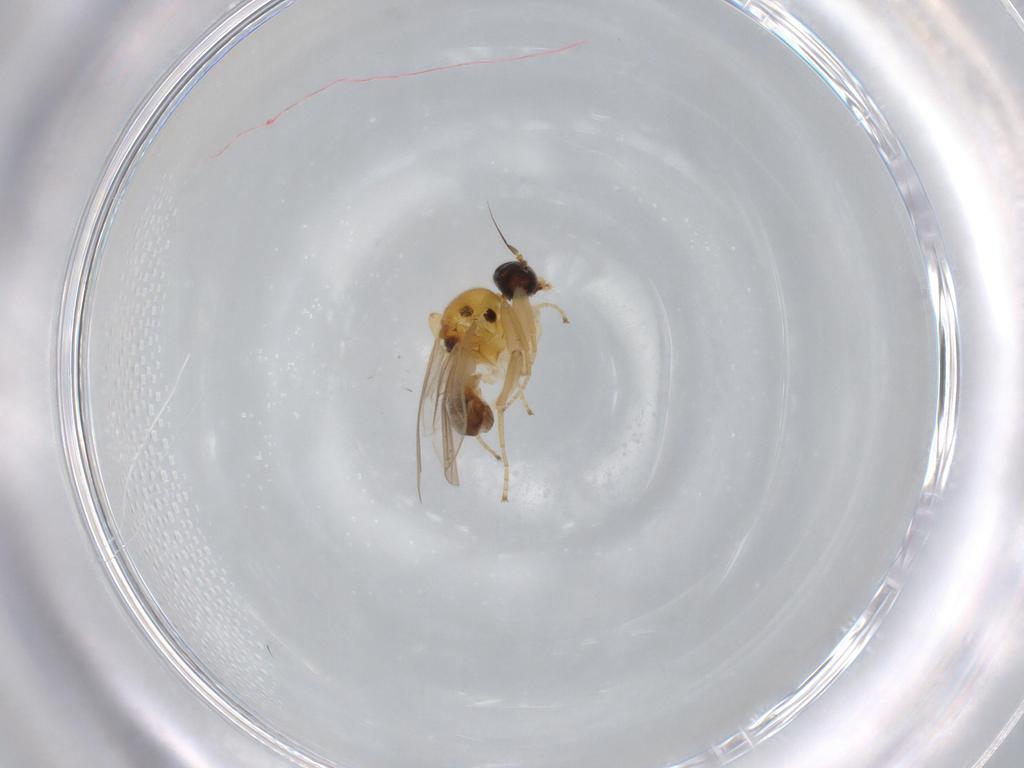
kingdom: Animalia
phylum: Arthropoda
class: Insecta
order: Diptera
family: Hybotidae
